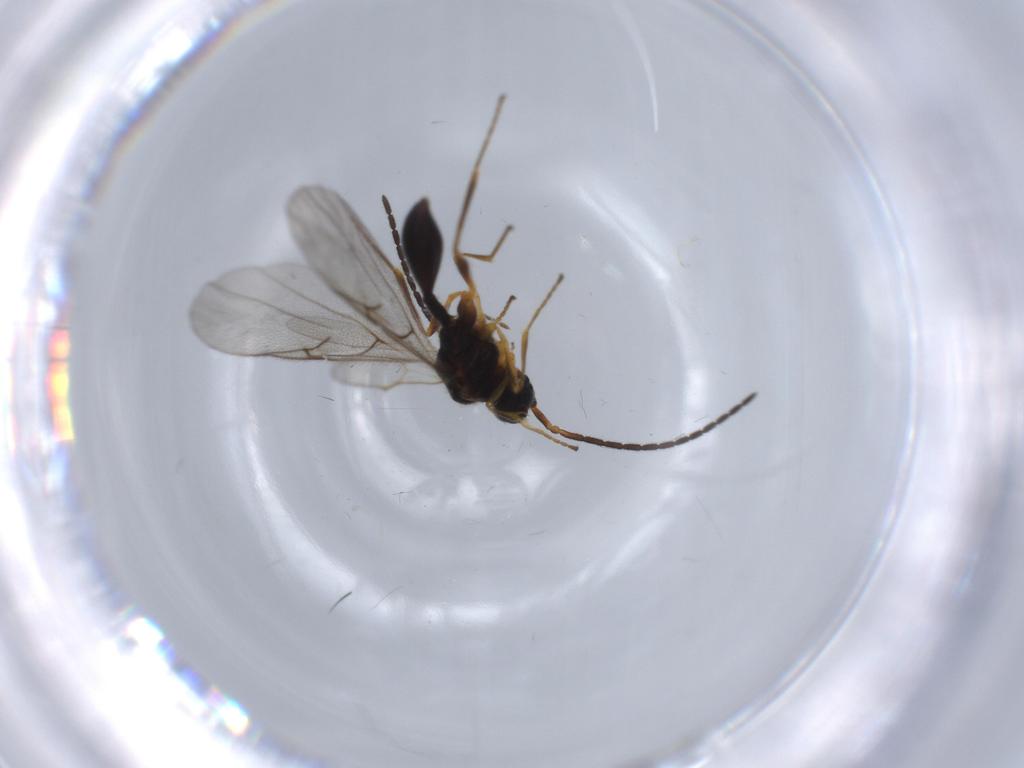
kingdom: Animalia
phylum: Arthropoda
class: Insecta
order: Hymenoptera
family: Diapriidae
